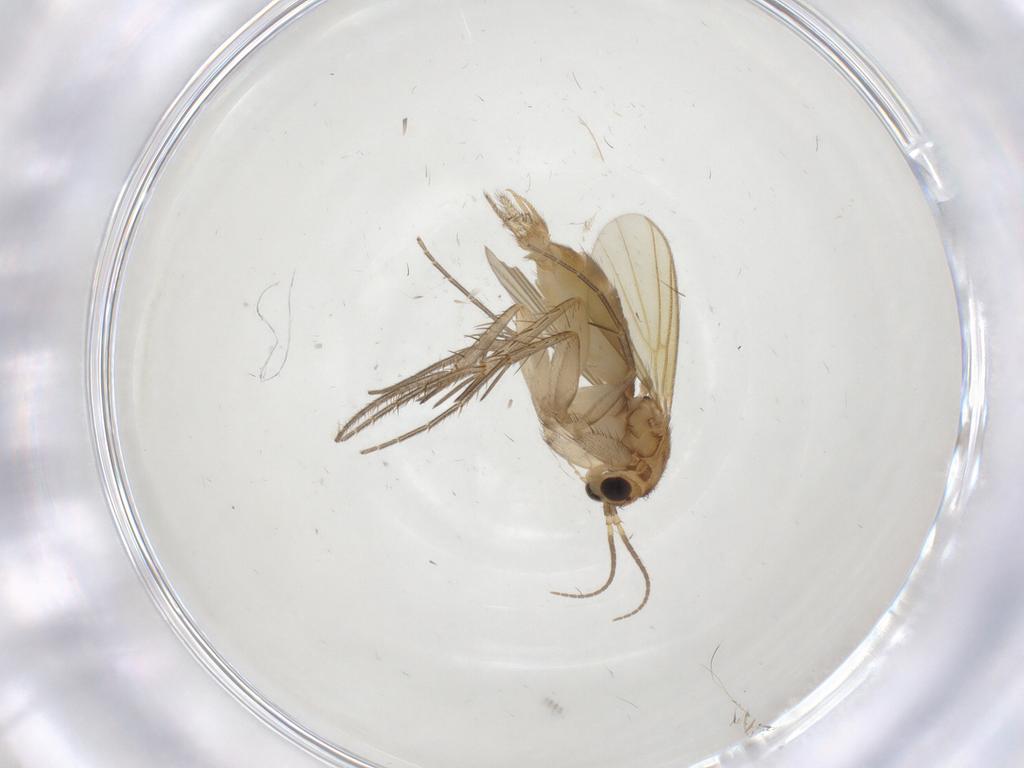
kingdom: Animalia
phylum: Arthropoda
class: Insecta
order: Diptera
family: Mycetophilidae
